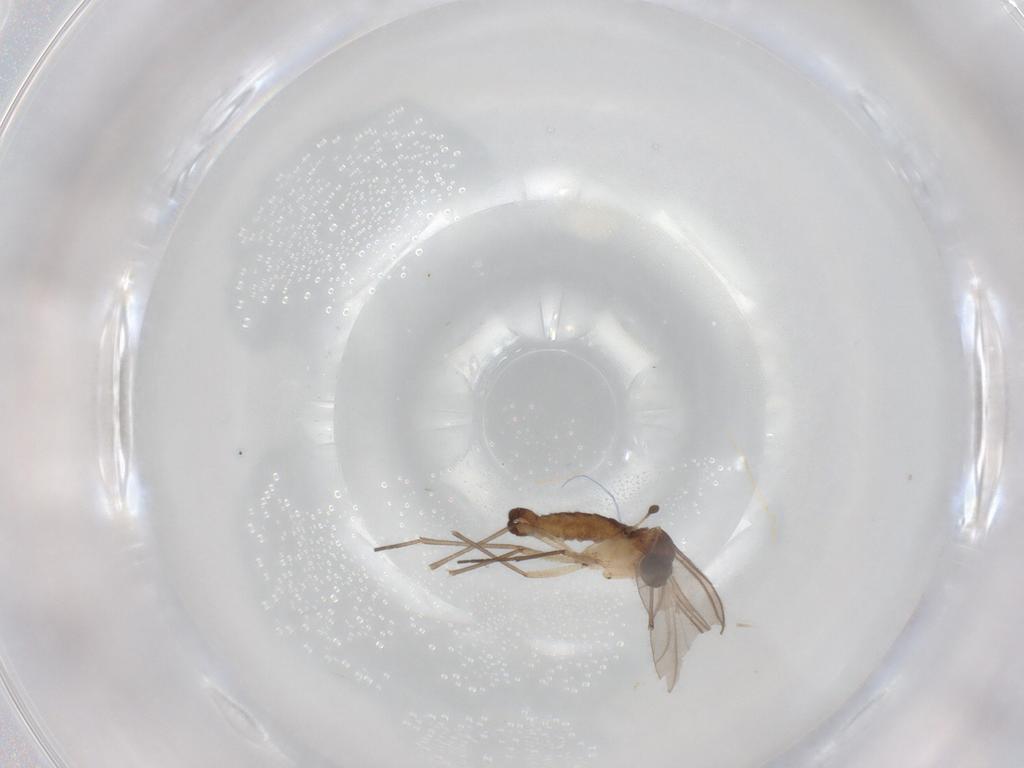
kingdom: Animalia
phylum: Arthropoda
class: Insecta
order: Diptera
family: Sciaridae
